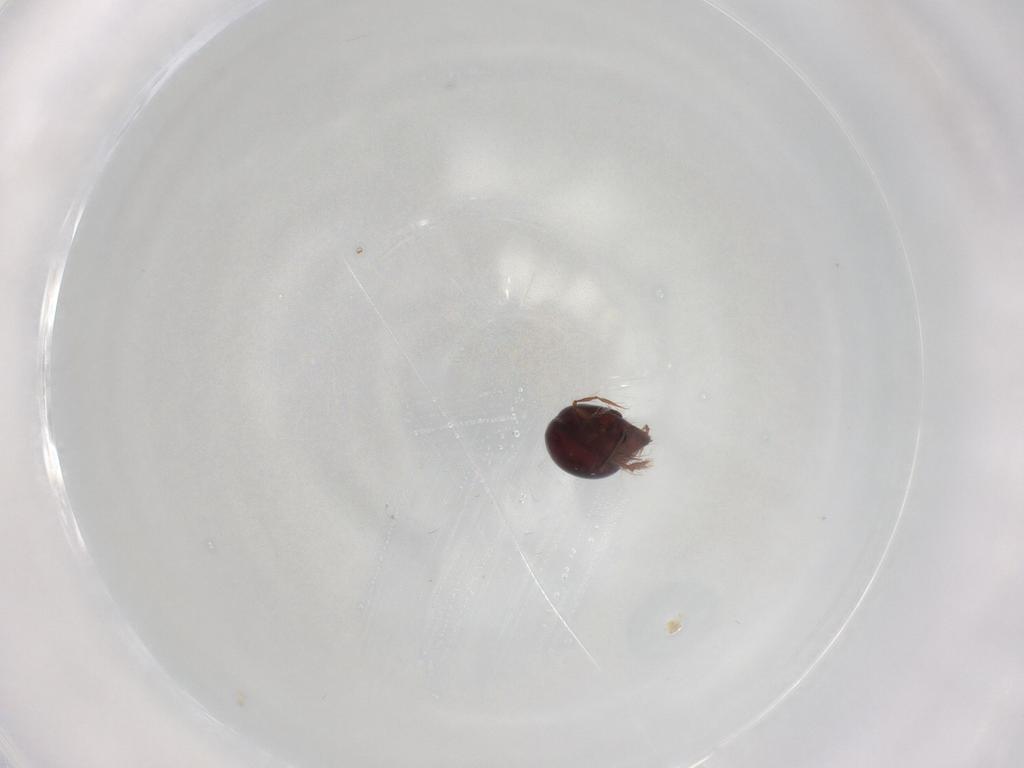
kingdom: Animalia
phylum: Arthropoda
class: Arachnida
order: Sarcoptiformes
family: Ceratoppiidae
